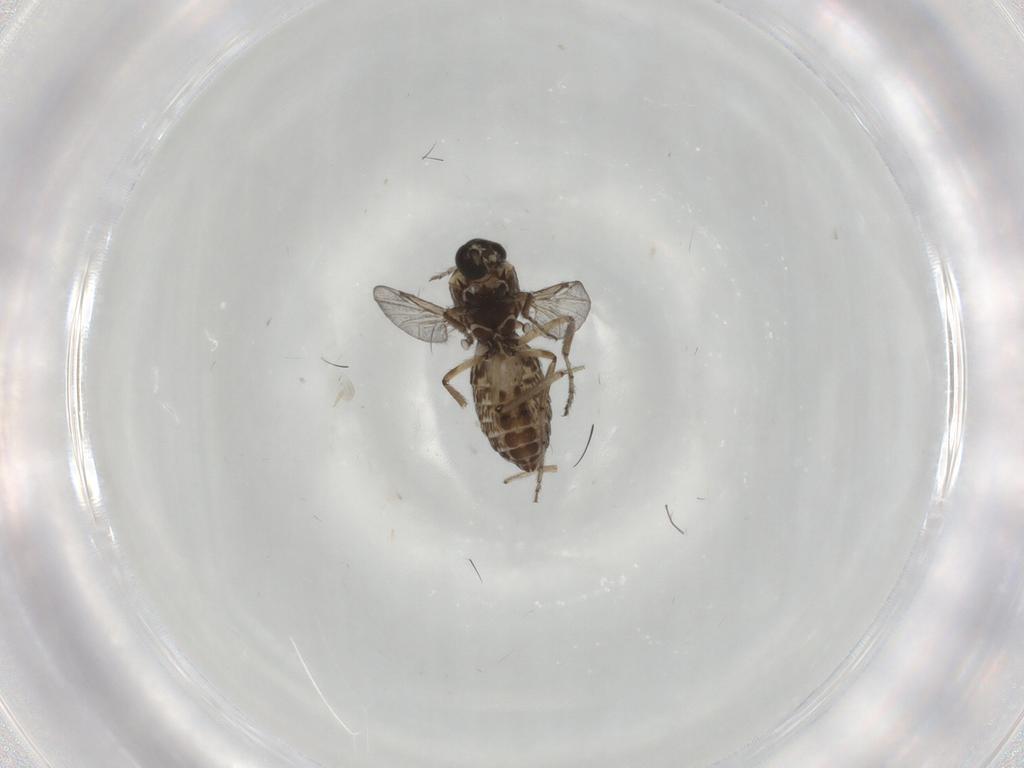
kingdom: Animalia
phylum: Arthropoda
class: Insecta
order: Diptera
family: Ceratopogonidae
